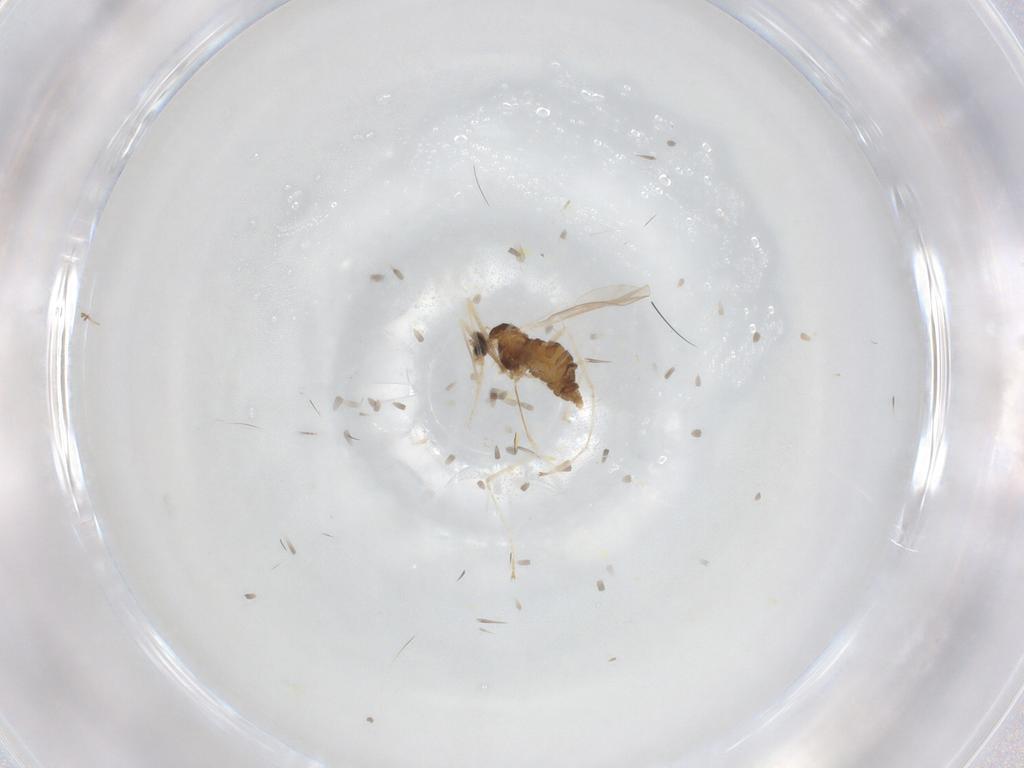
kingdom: Animalia
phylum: Arthropoda
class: Insecta
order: Diptera
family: Cecidomyiidae
